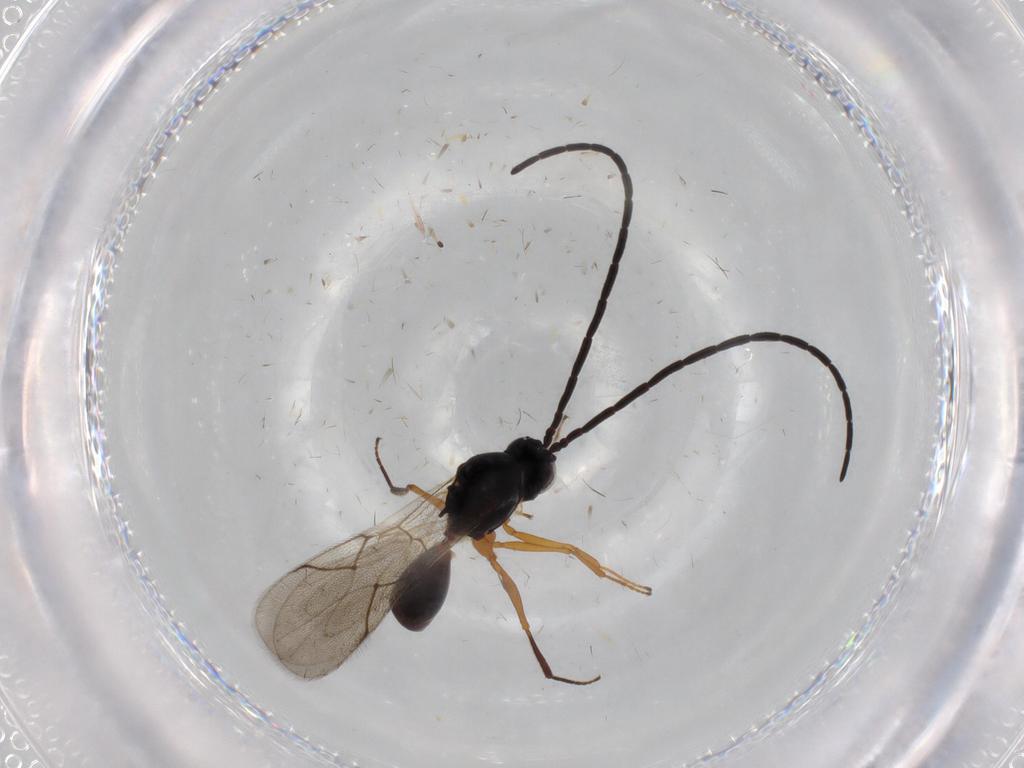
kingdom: Animalia
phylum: Arthropoda
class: Insecta
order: Hymenoptera
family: Figitidae
